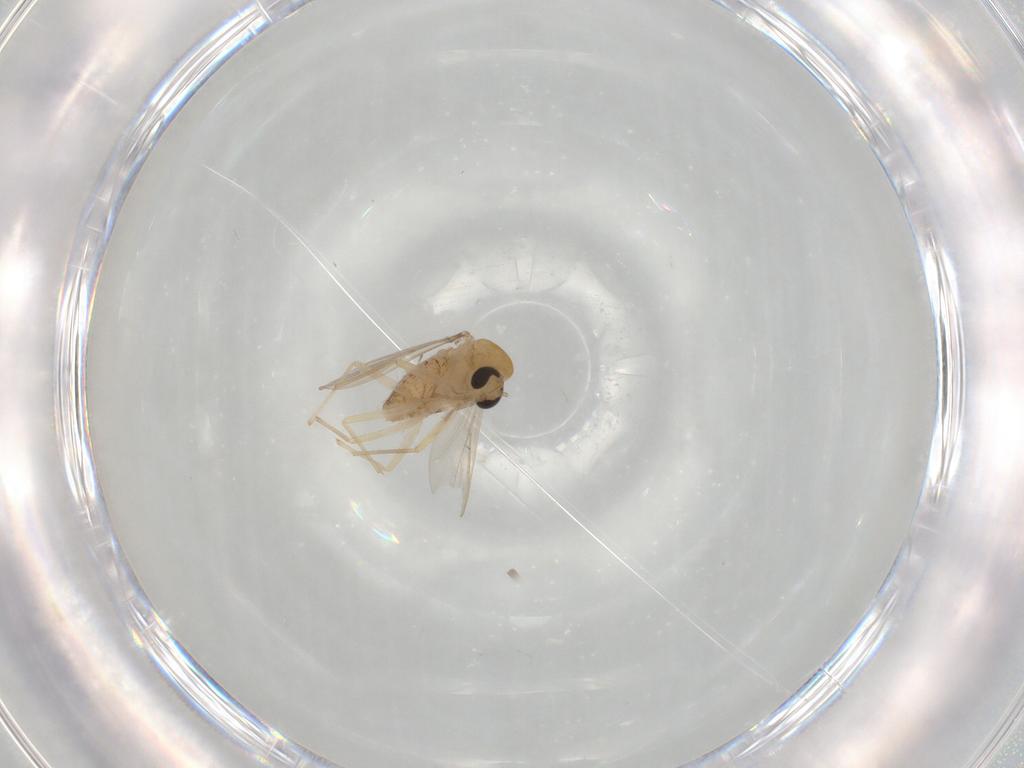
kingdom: Animalia
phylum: Arthropoda
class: Insecta
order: Diptera
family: Chironomidae
